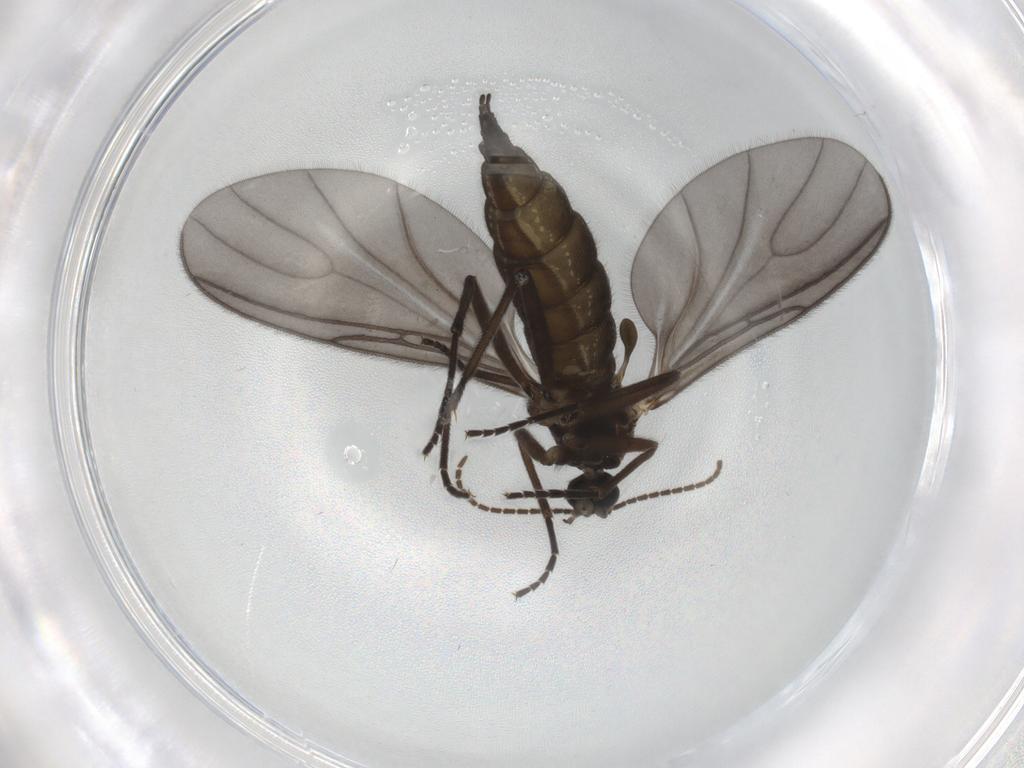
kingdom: Animalia
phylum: Arthropoda
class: Insecta
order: Diptera
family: Sciaridae
